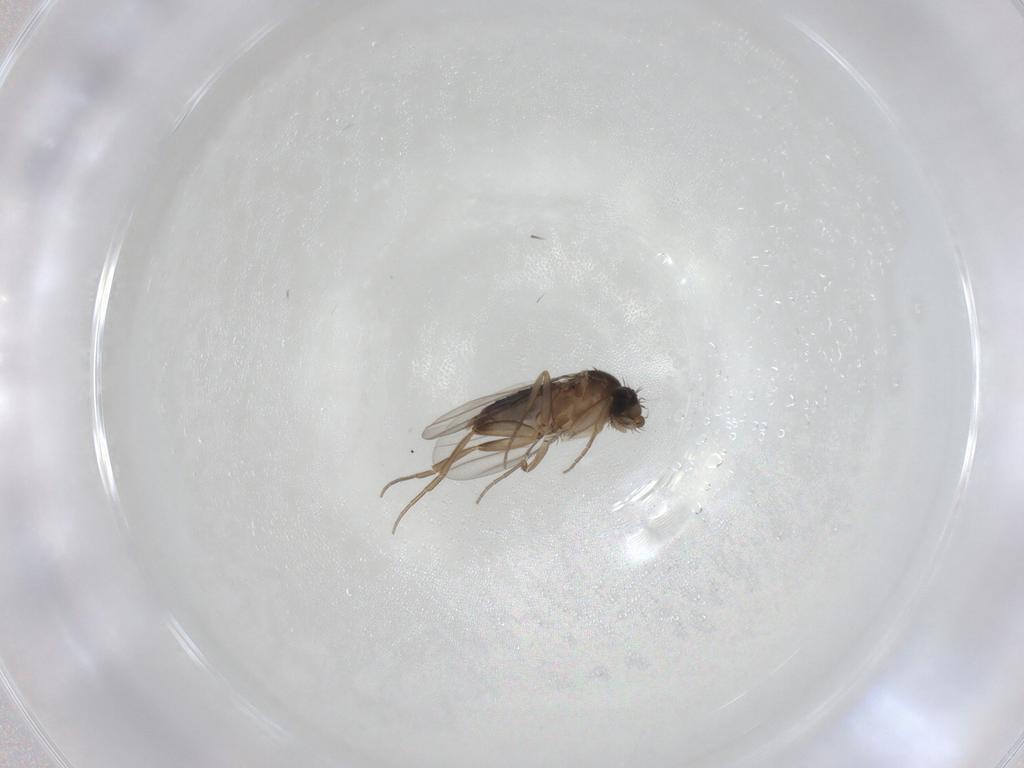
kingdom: Animalia
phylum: Arthropoda
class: Insecta
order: Diptera
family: Phoridae
